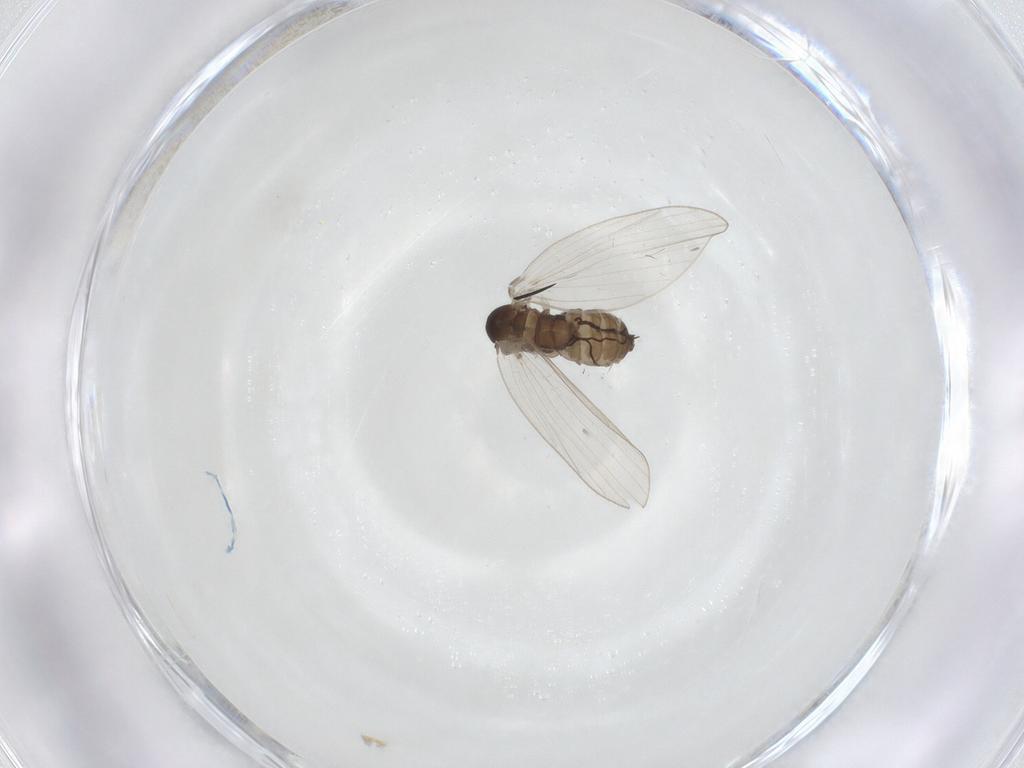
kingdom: Animalia
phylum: Arthropoda
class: Insecta
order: Diptera
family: Psychodidae
